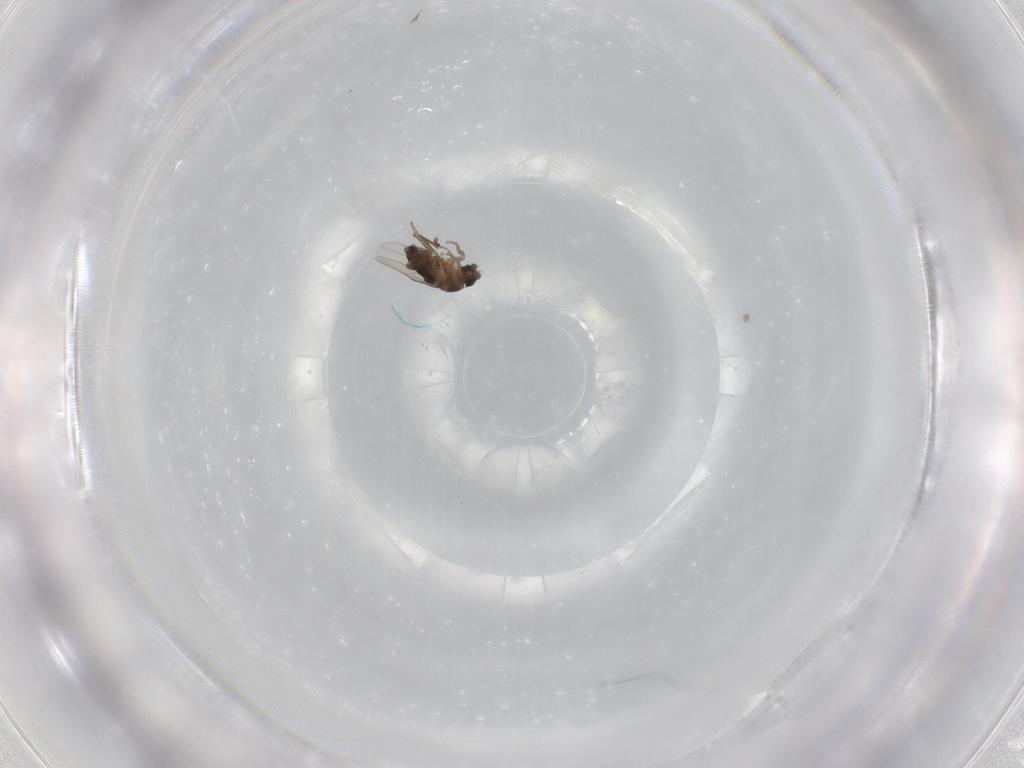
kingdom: Animalia
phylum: Arthropoda
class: Insecta
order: Diptera
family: Phoridae
